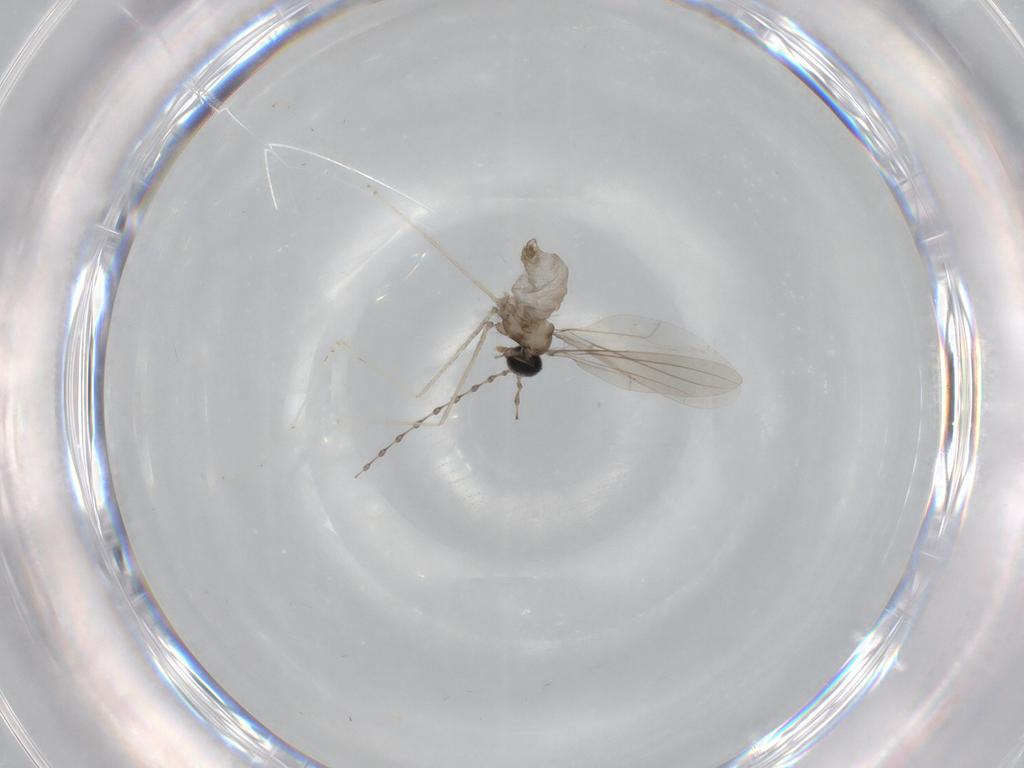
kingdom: Animalia
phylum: Arthropoda
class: Insecta
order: Diptera
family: Cecidomyiidae
